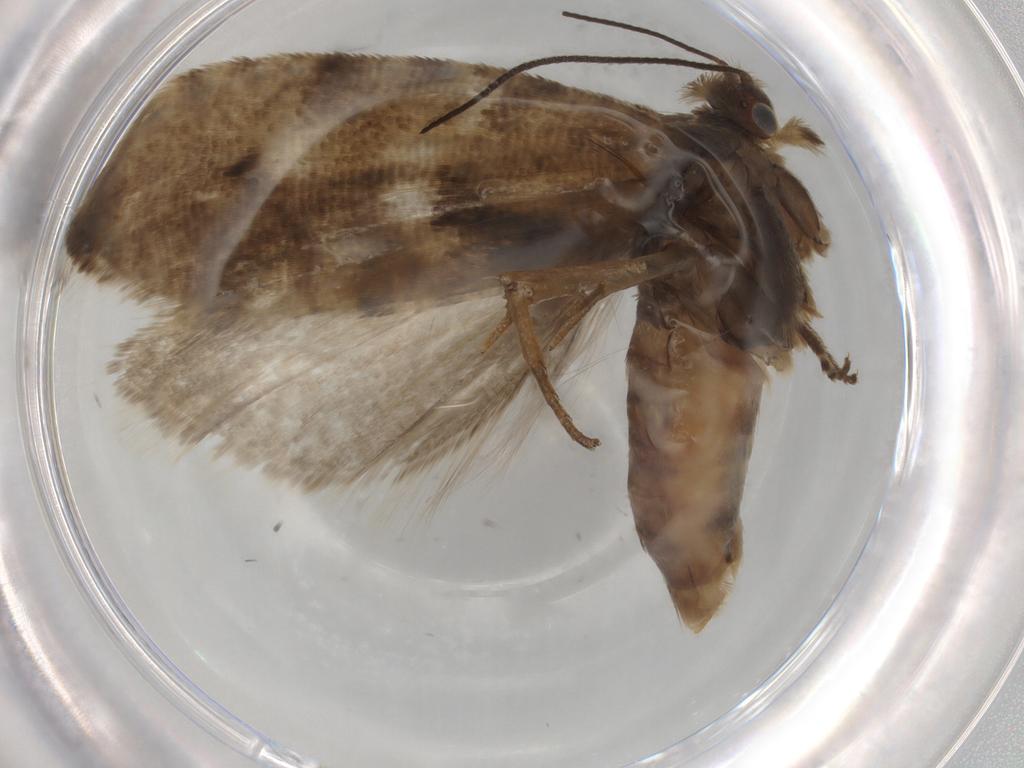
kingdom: Animalia
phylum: Arthropoda
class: Insecta
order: Lepidoptera
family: Tortricidae
